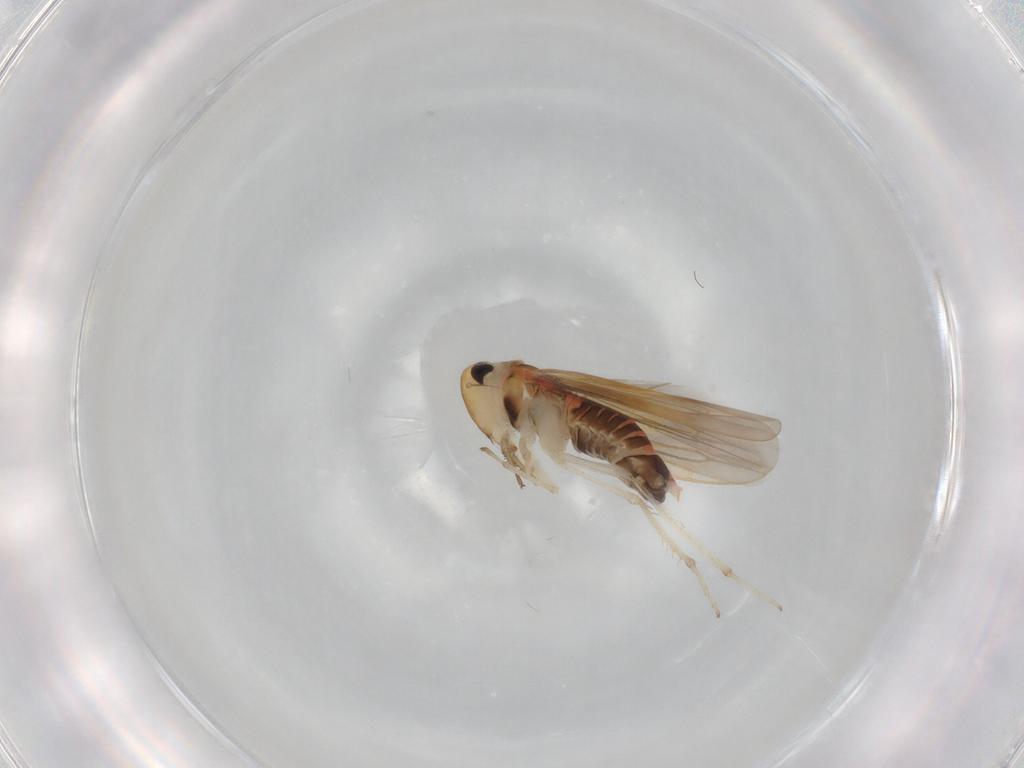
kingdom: Animalia
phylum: Arthropoda
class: Insecta
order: Hemiptera
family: Cicadellidae
